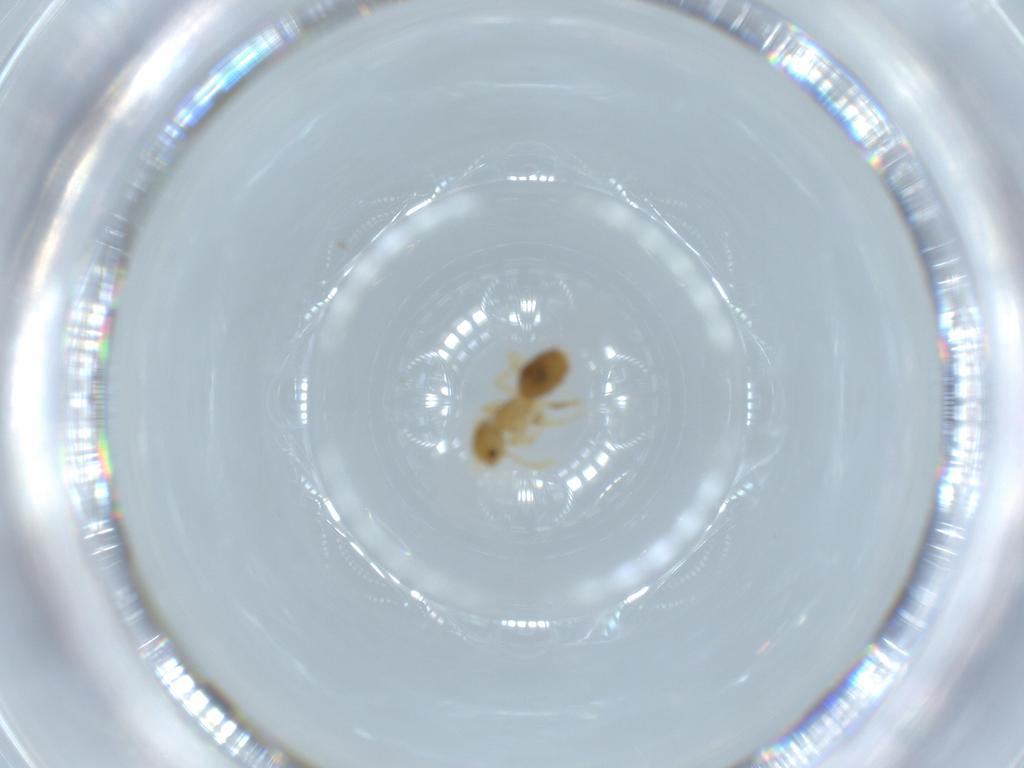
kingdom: Animalia
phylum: Arthropoda
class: Insecta
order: Hymenoptera
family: Formicidae
